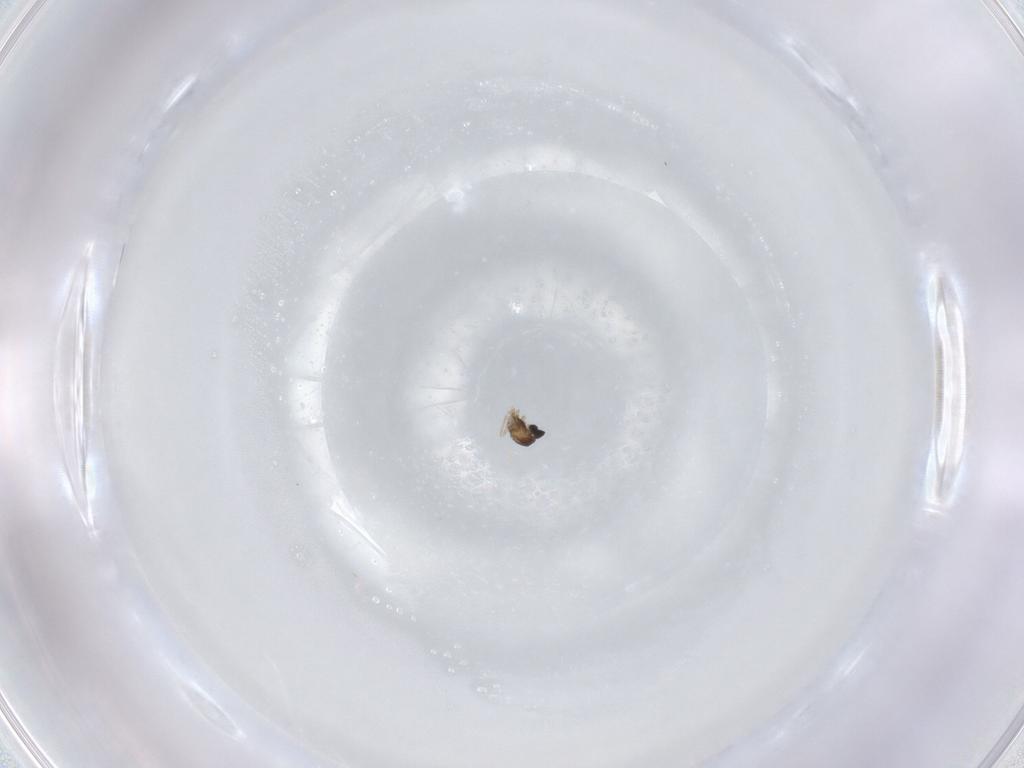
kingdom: Animalia
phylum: Arthropoda
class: Insecta
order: Diptera
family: Cecidomyiidae
